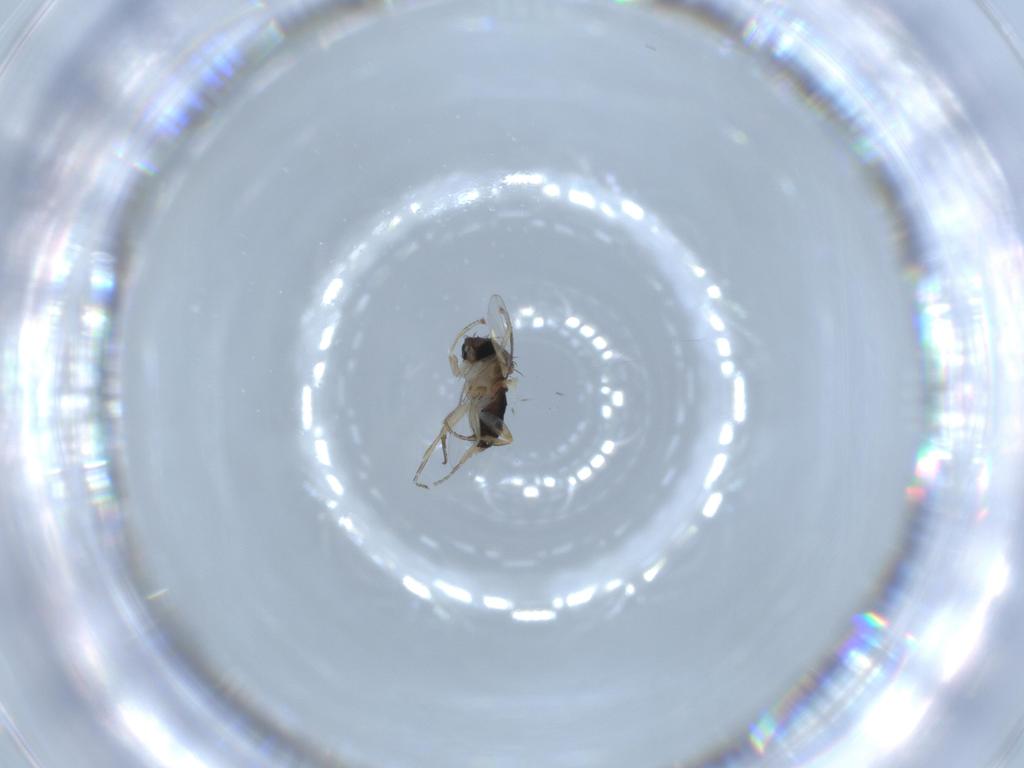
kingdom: Animalia
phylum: Arthropoda
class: Insecta
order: Diptera
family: Phoridae
